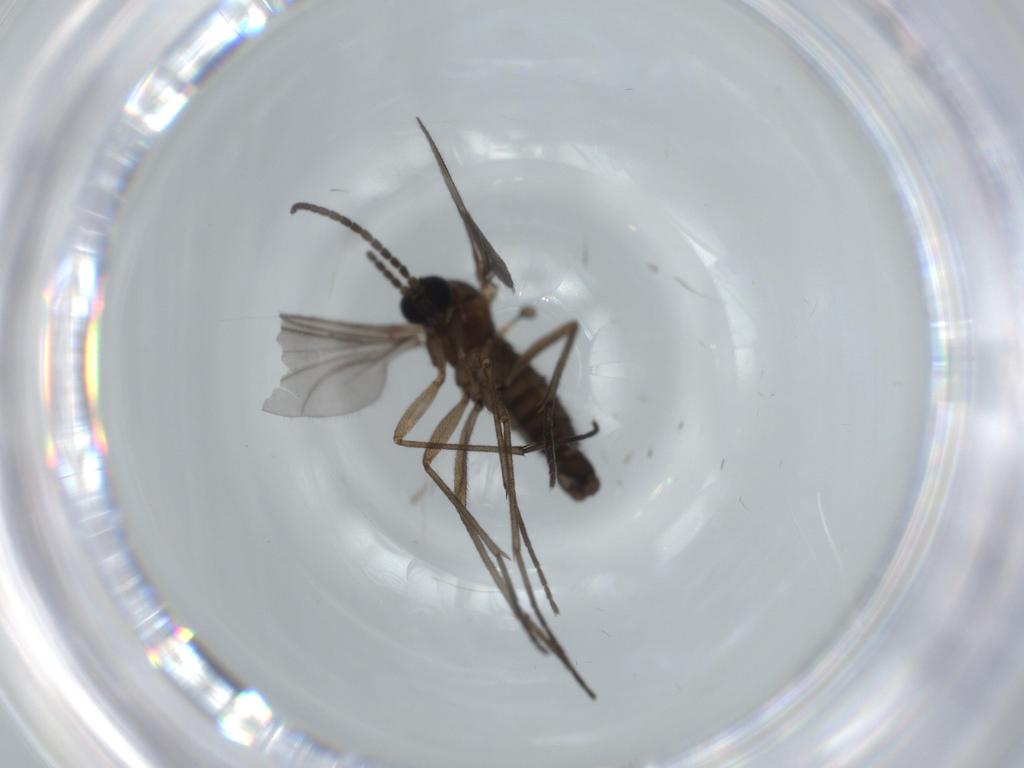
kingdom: Animalia
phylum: Arthropoda
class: Insecta
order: Diptera
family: Sciaridae
